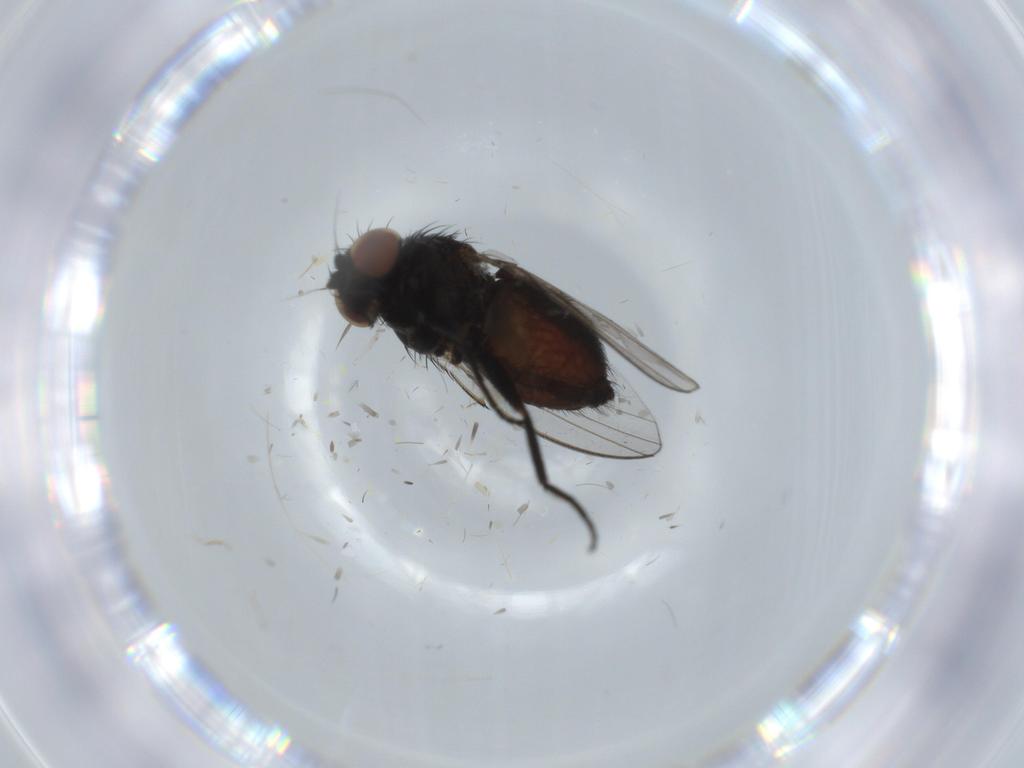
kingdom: Animalia
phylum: Arthropoda
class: Insecta
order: Diptera
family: Milichiidae
